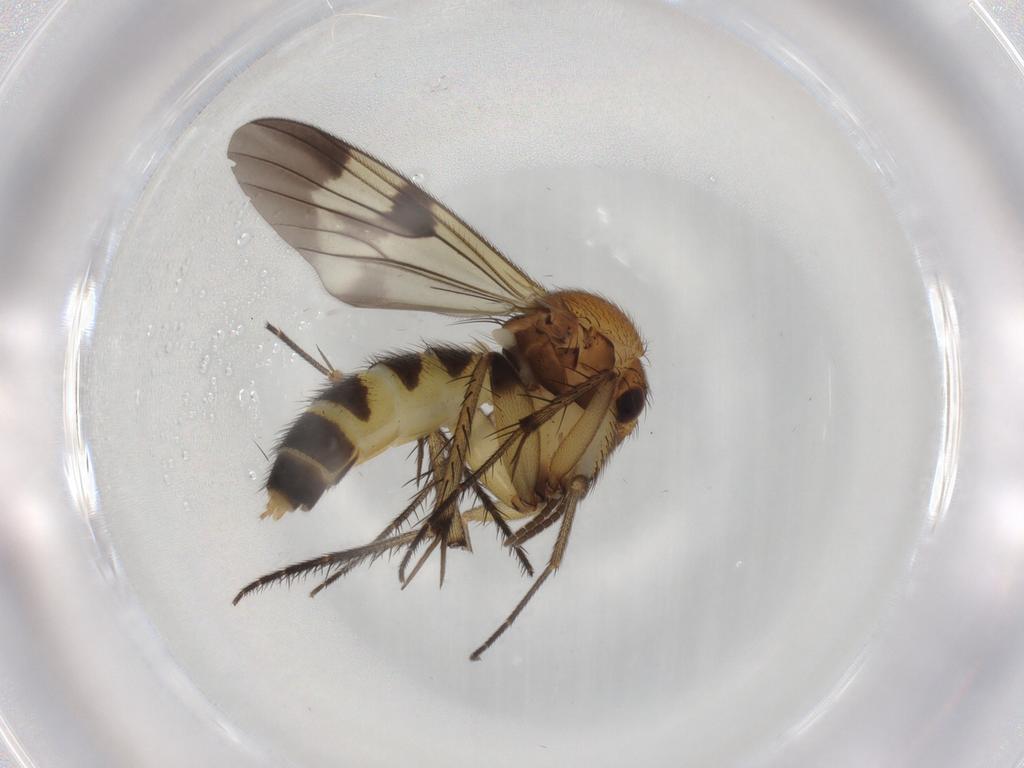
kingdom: Animalia
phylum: Arthropoda
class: Insecta
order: Diptera
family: Mycetophilidae
